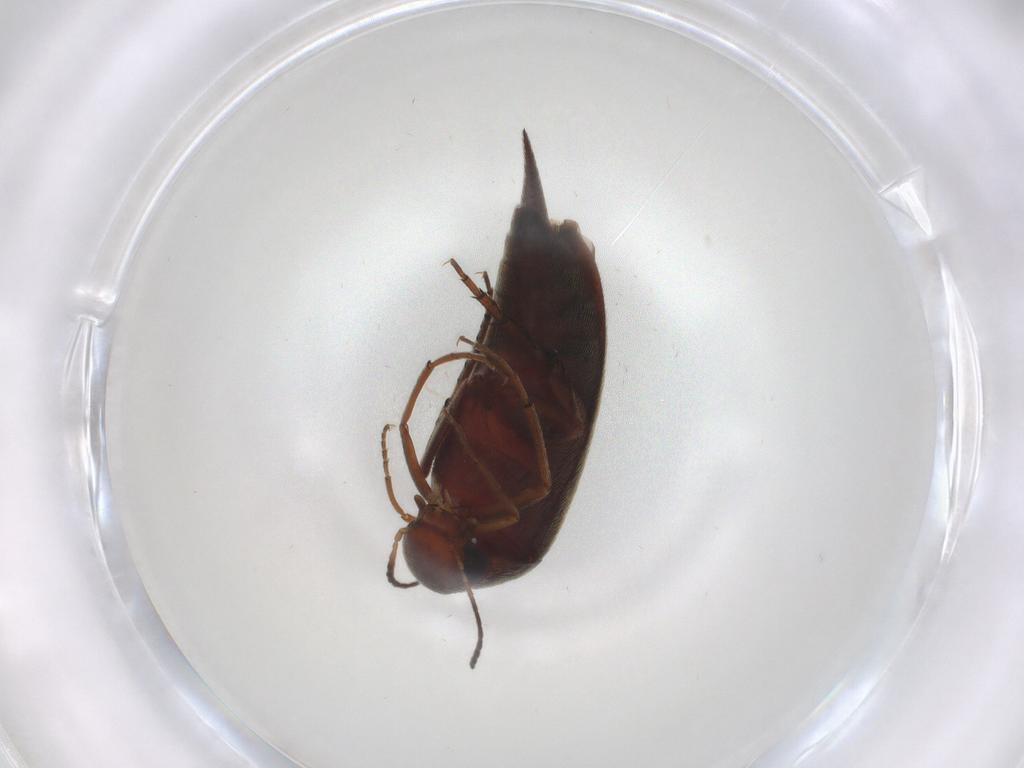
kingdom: Animalia
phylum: Arthropoda
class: Insecta
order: Coleoptera
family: Mordellidae
